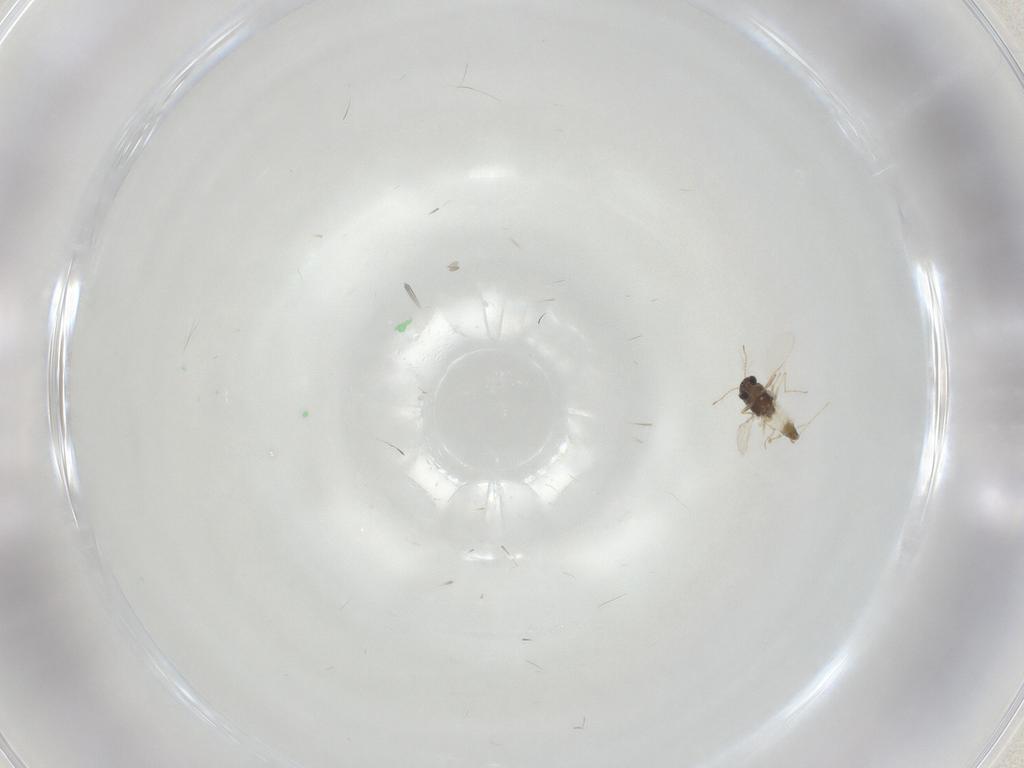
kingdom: Animalia
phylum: Arthropoda
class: Insecta
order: Diptera
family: Chironomidae
